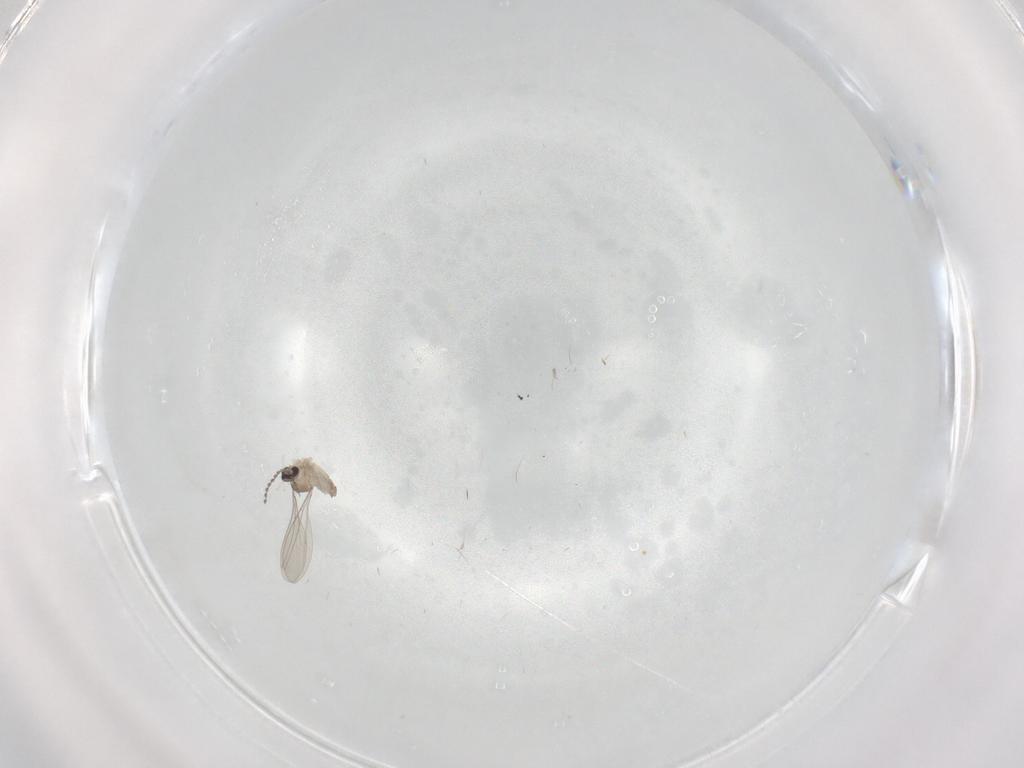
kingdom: Animalia
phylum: Arthropoda
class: Insecta
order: Diptera
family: Cecidomyiidae
